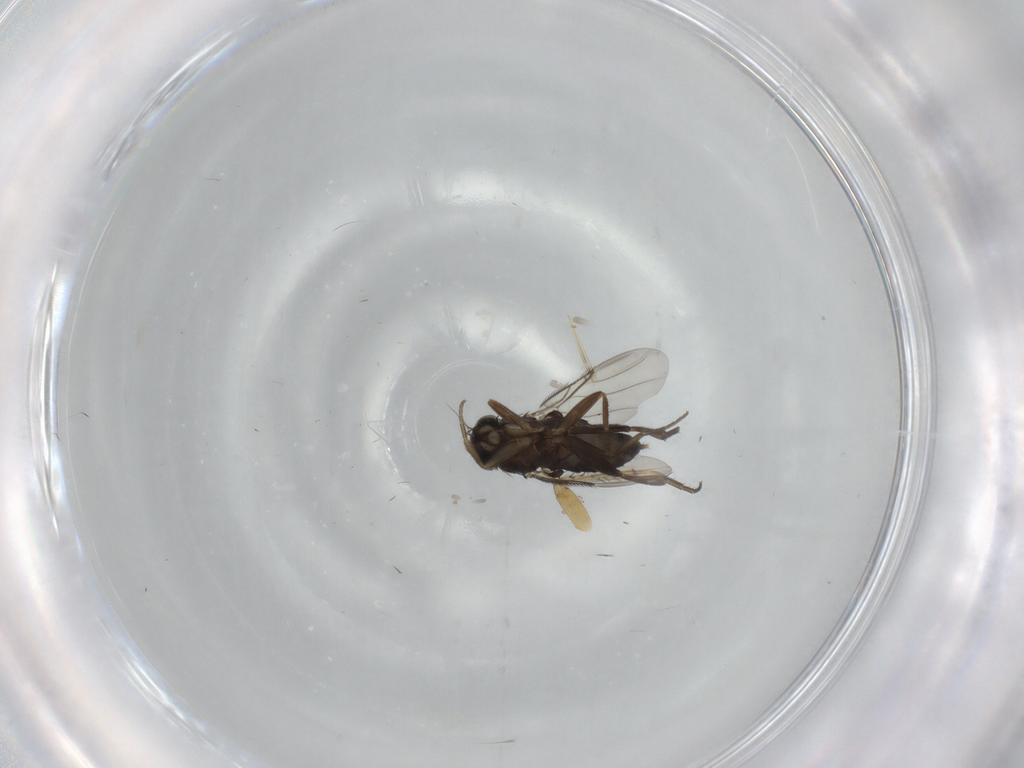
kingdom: Animalia
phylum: Arthropoda
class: Insecta
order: Diptera
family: Phoridae
